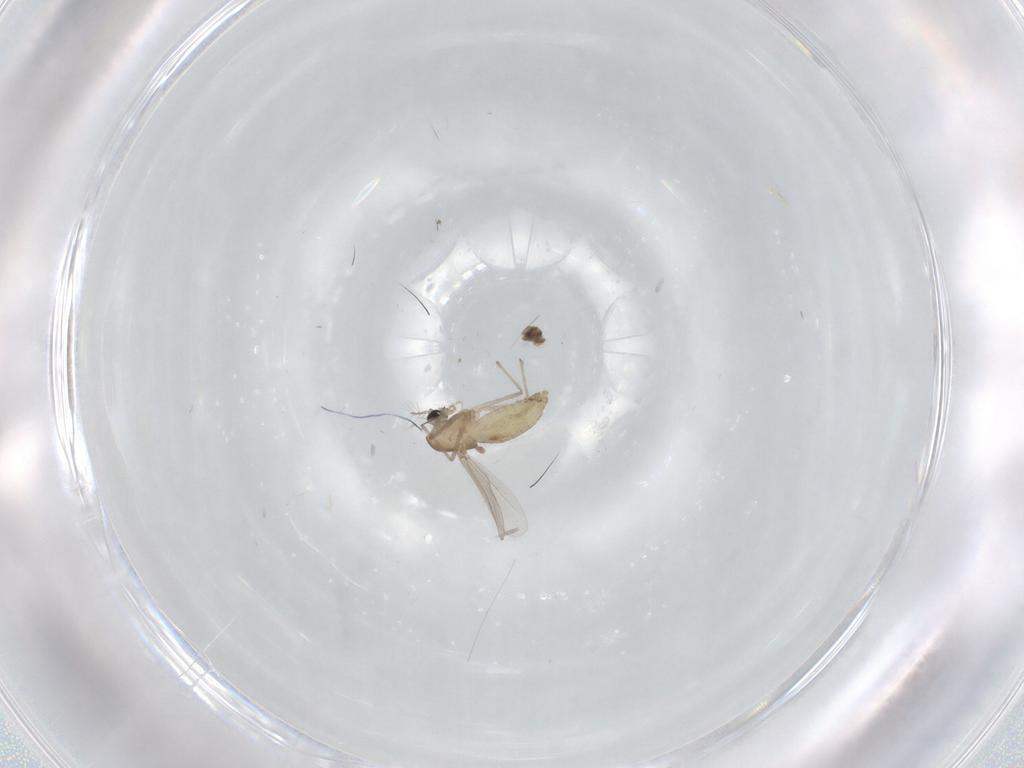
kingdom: Animalia
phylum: Arthropoda
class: Insecta
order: Diptera
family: Chironomidae
